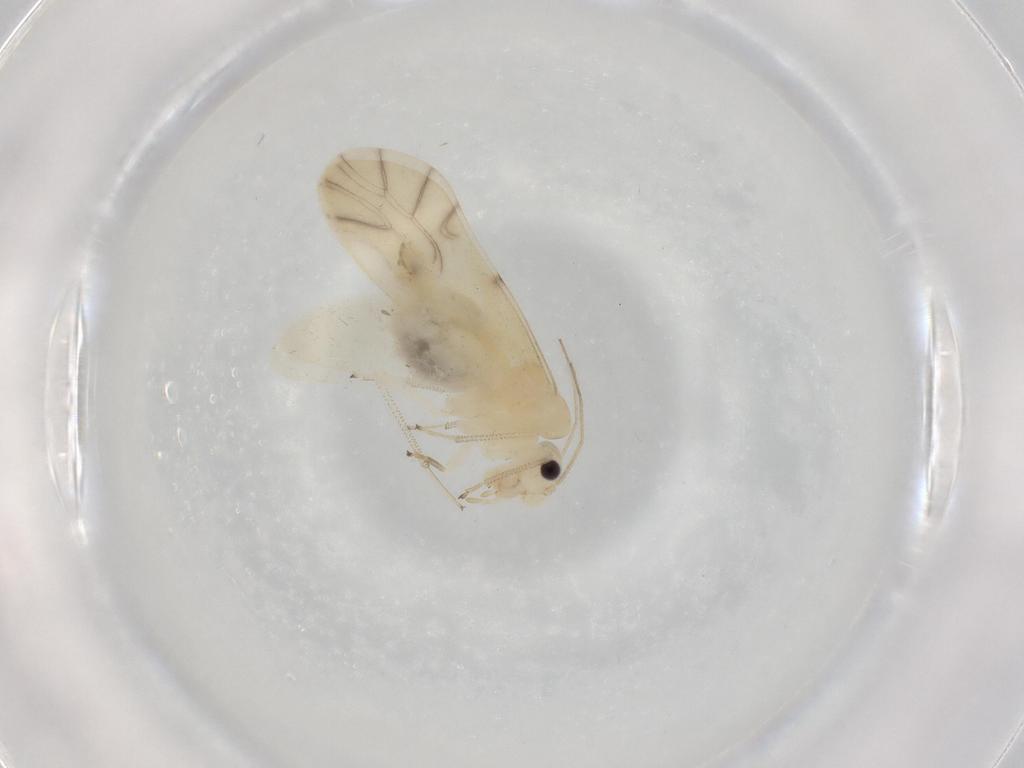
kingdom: Animalia
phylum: Arthropoda
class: Insecta
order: Psocodea
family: Caeciliusidae
